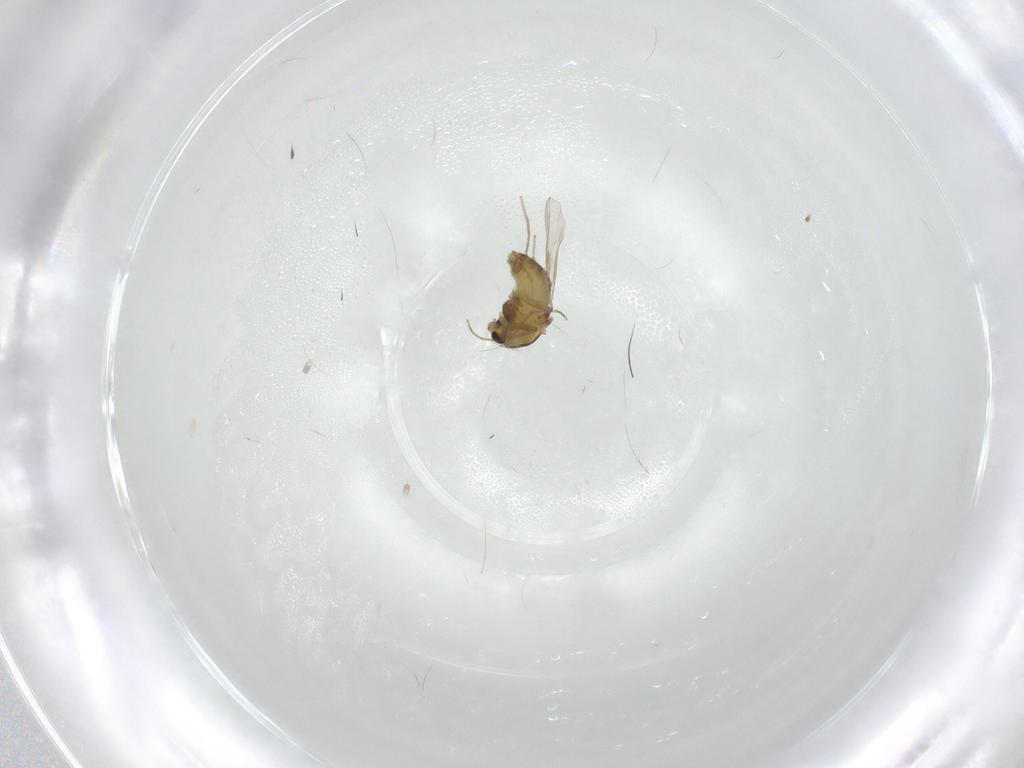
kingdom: Animalia
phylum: Arthropoda
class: Insecta
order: Diptera
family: Chironomidae
